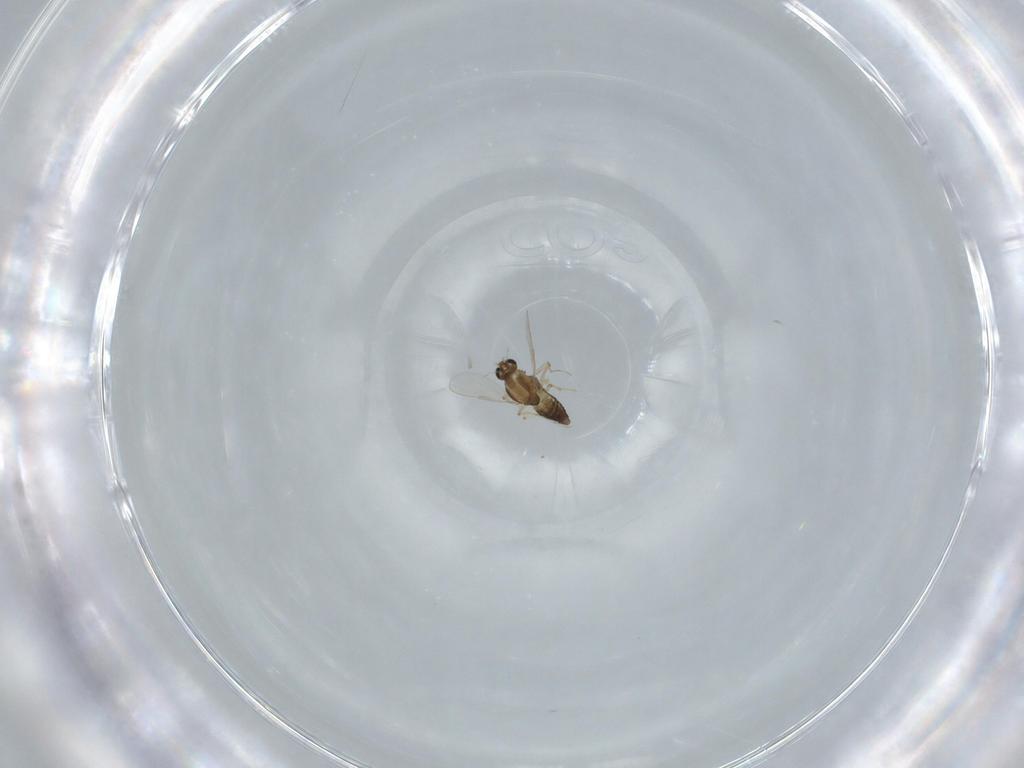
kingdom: Animalia
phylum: Arthropoda
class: Insecta
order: Diptera
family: Chironomidae
